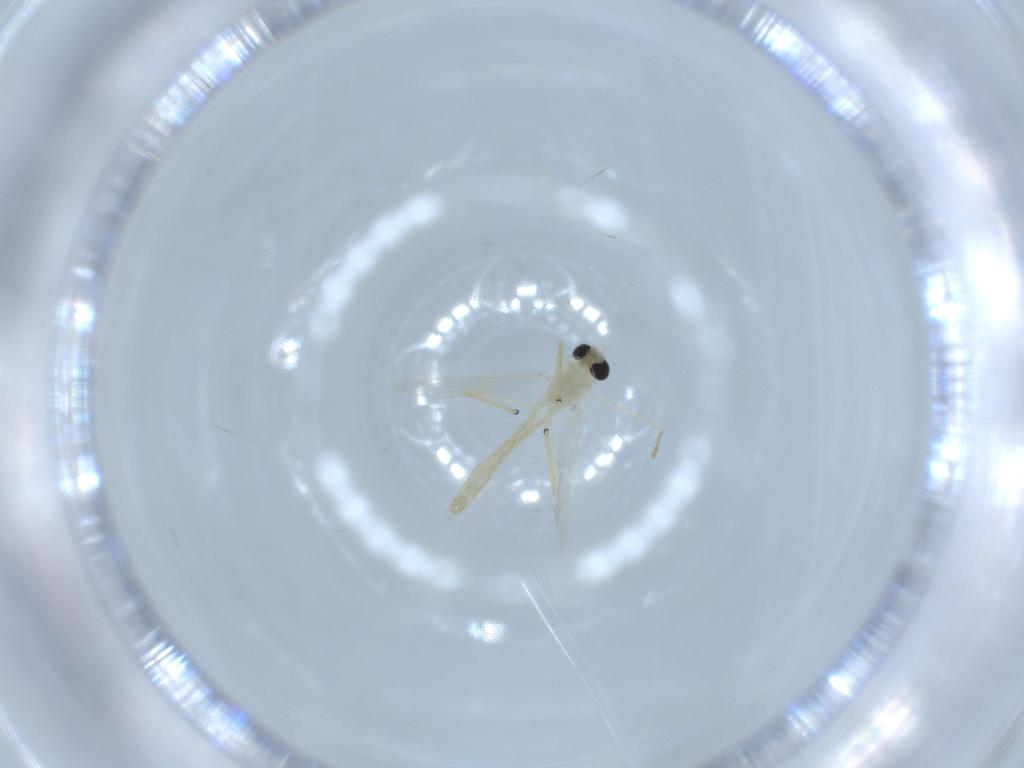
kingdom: Animalia
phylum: Arthropoda
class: Insecta
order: Diptera
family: Chironomidae
